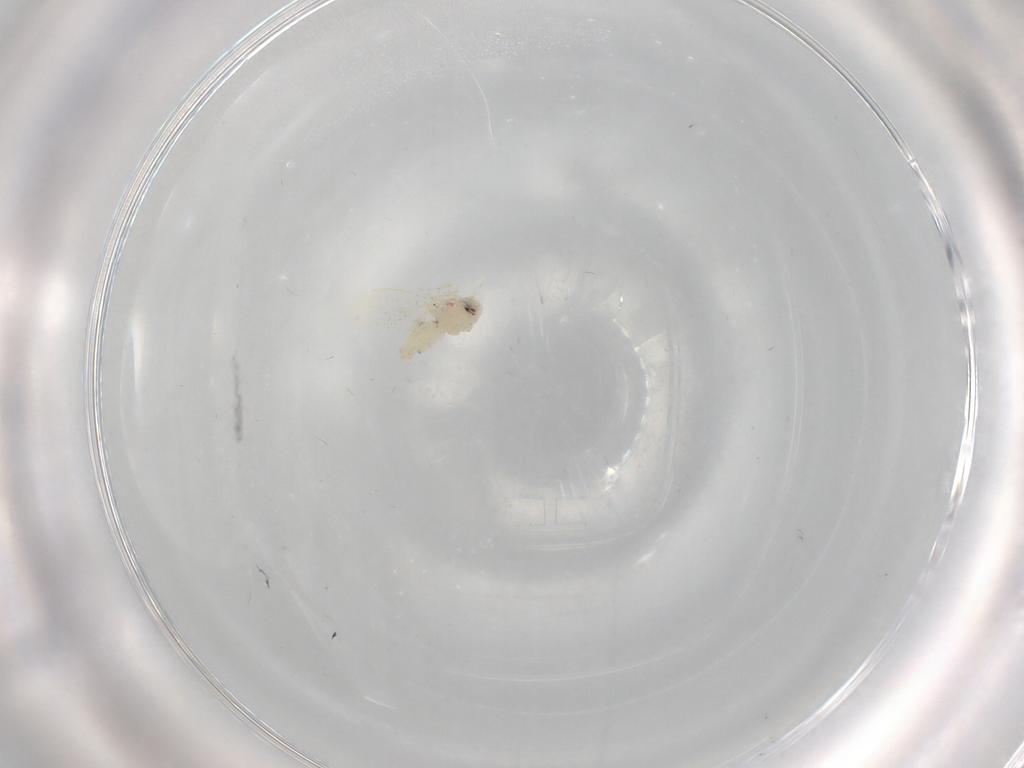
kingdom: Animalia
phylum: Arthropoda
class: Insecta
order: Hemiptera
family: Aleyrodidae
